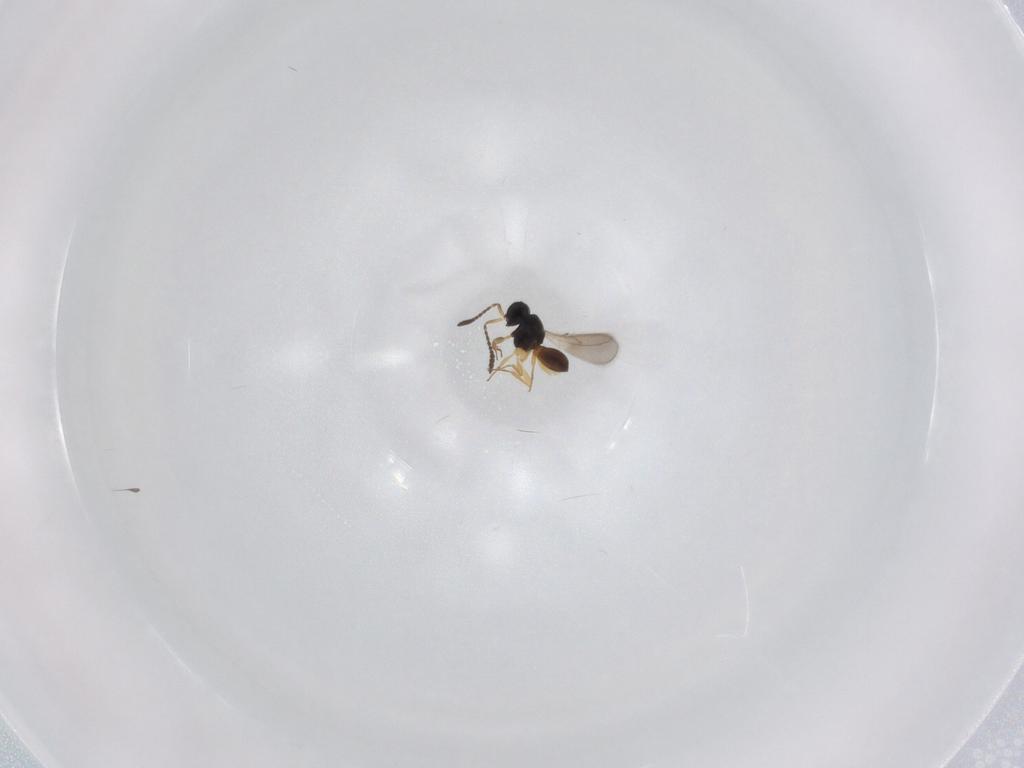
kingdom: Animalia
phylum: Arthropoda
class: Insecta
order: Hymenoptera
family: Scelionidae
